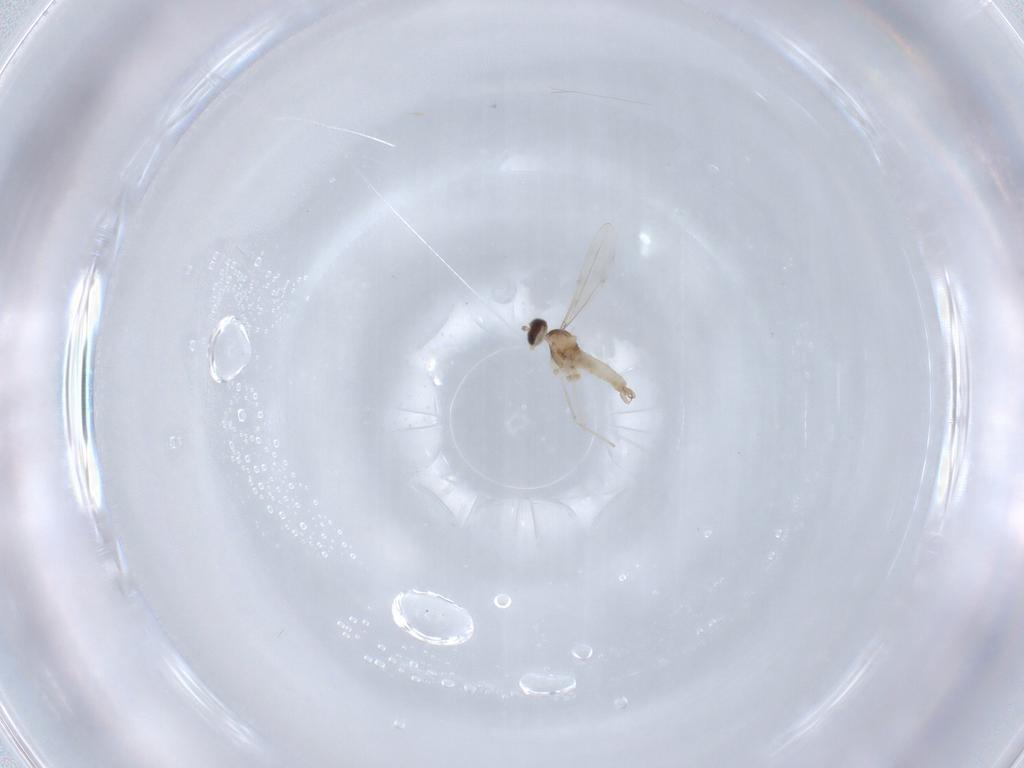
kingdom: Animalia
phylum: Arthropoda
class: Insecta
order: Diptera
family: Cecidomyiidae
